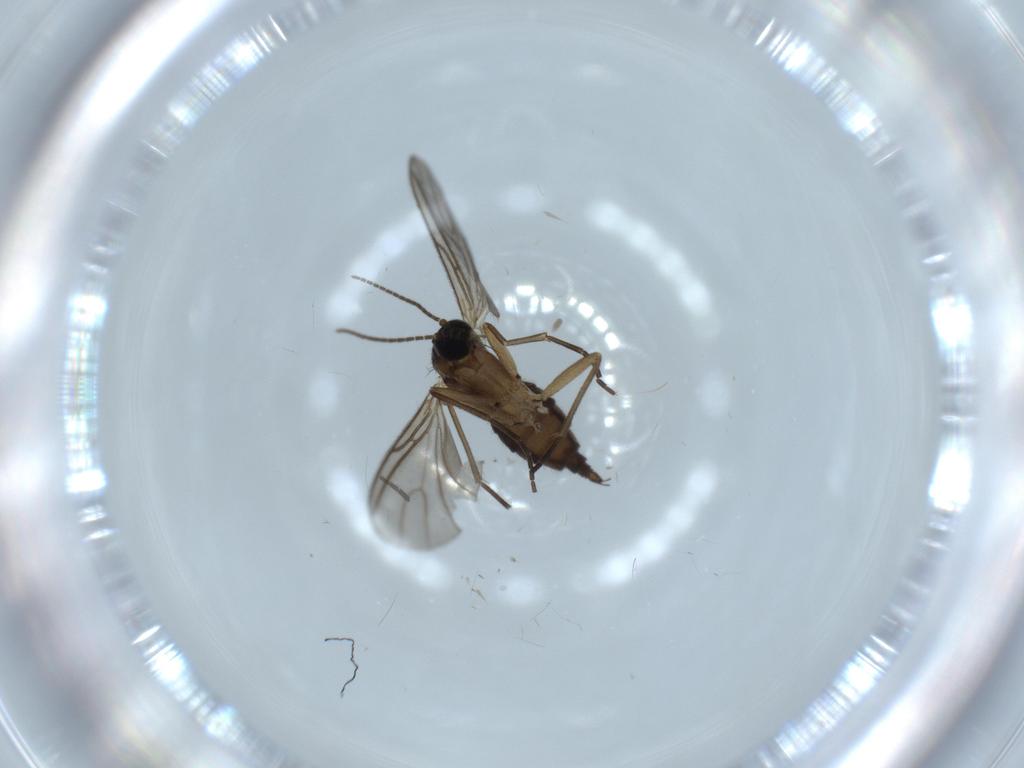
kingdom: Animalia
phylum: Arthropoda
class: Insecta
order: Diptera
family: Sciaridae
